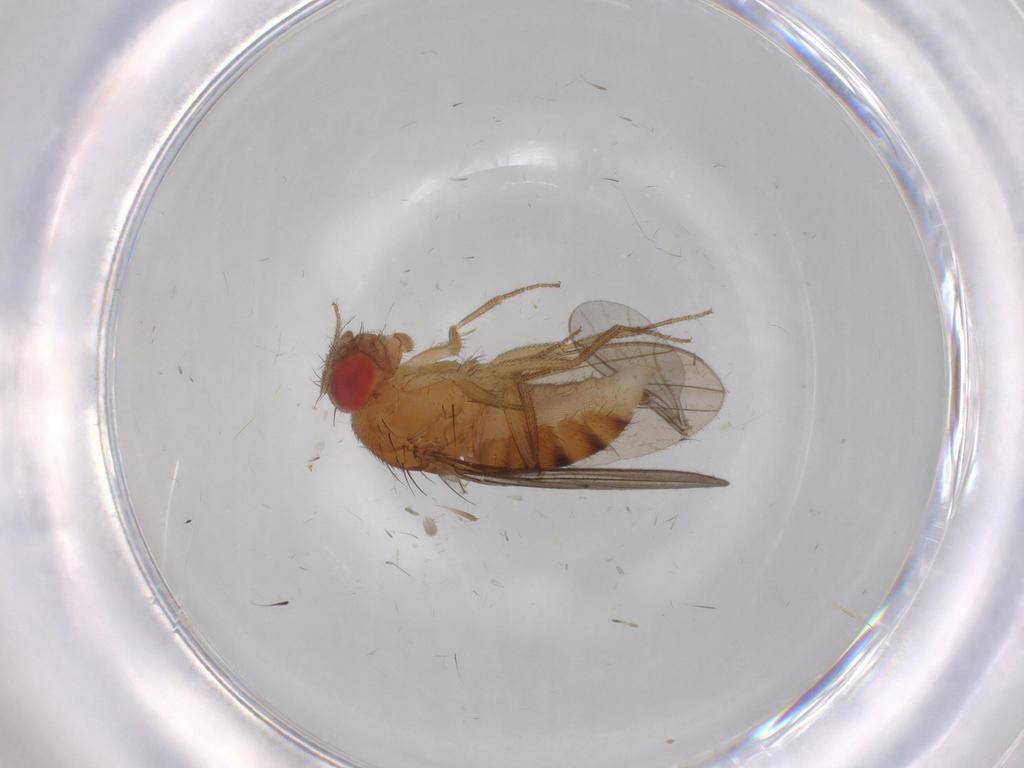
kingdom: Animalia
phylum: Arthropoda
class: Insecta
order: Diptera
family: Drosophilidae
